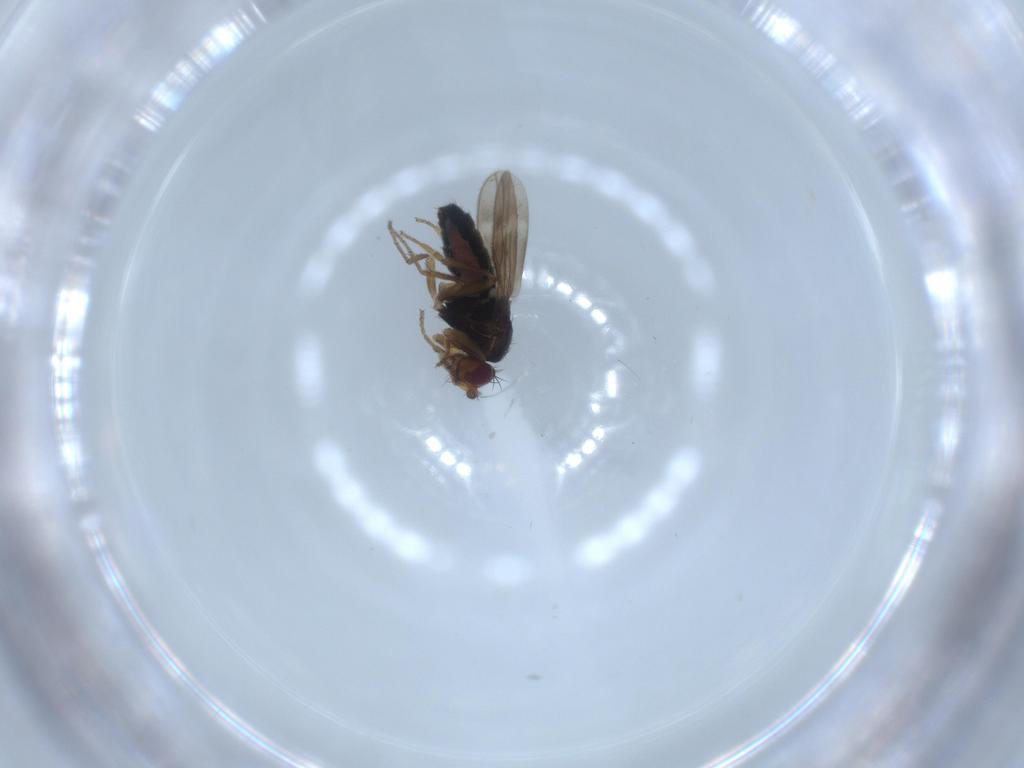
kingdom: Animalia
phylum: Arthropoda
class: Insecta
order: Diptera
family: Sphaeroceridae
